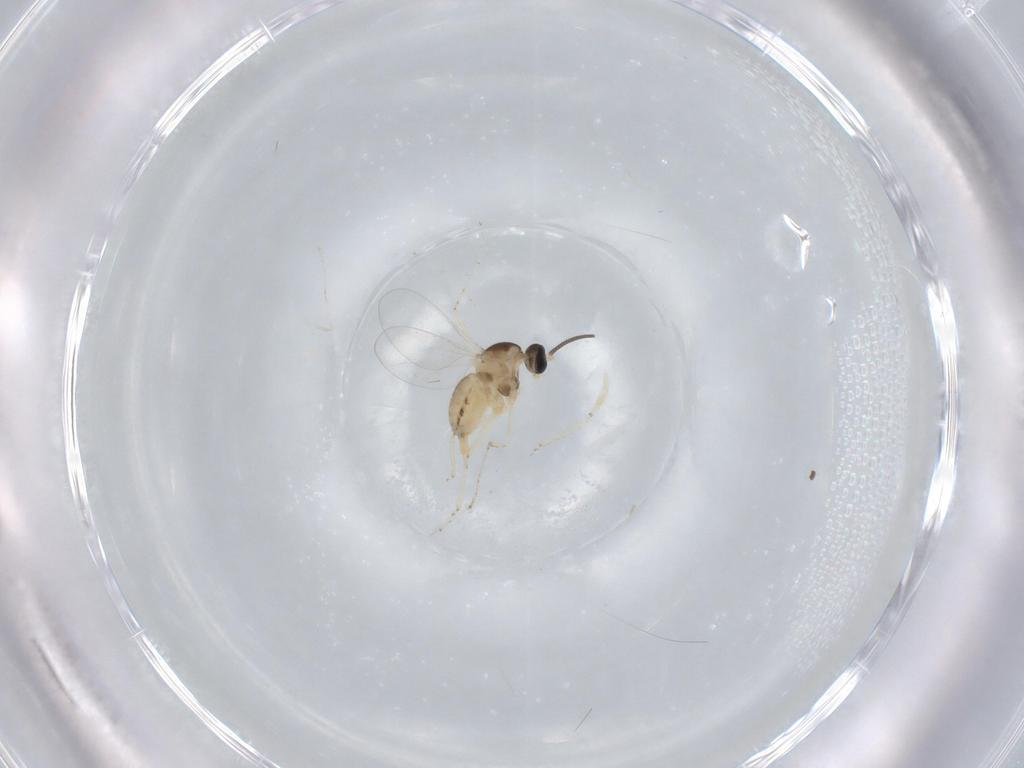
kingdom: Animalia
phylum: Arthropoda
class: Insecta
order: Diptera
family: Cecidomyiidae
